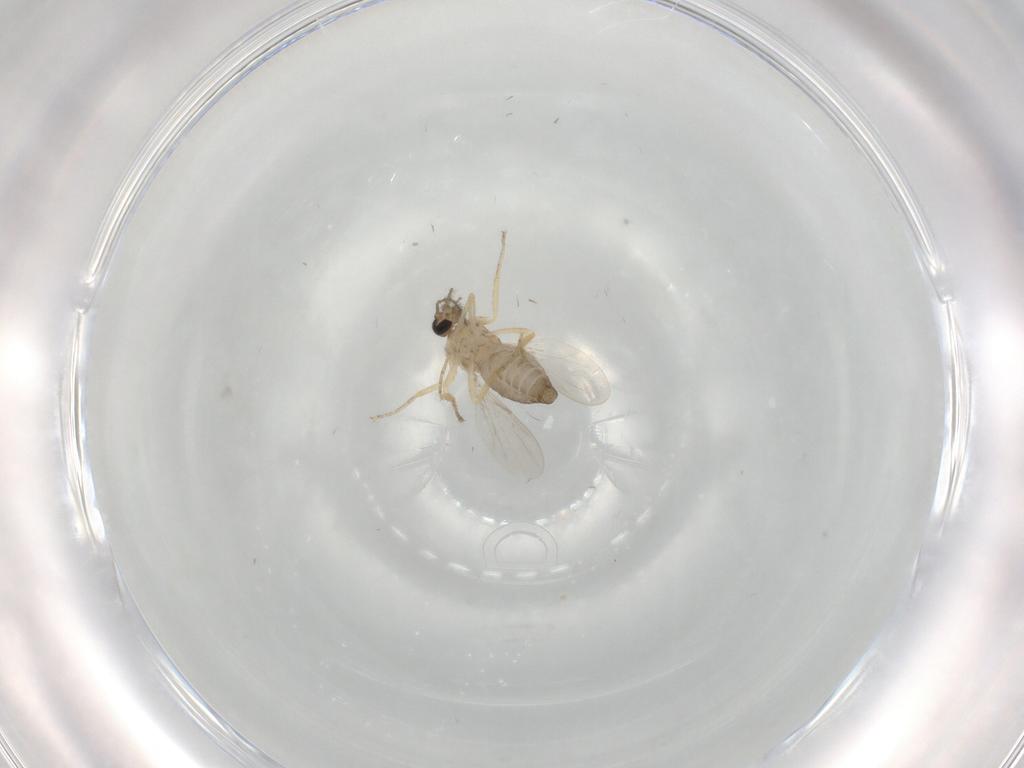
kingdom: Animalia
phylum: Arthropoda
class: Insecta
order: Diptera
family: Ceratopogonidae
